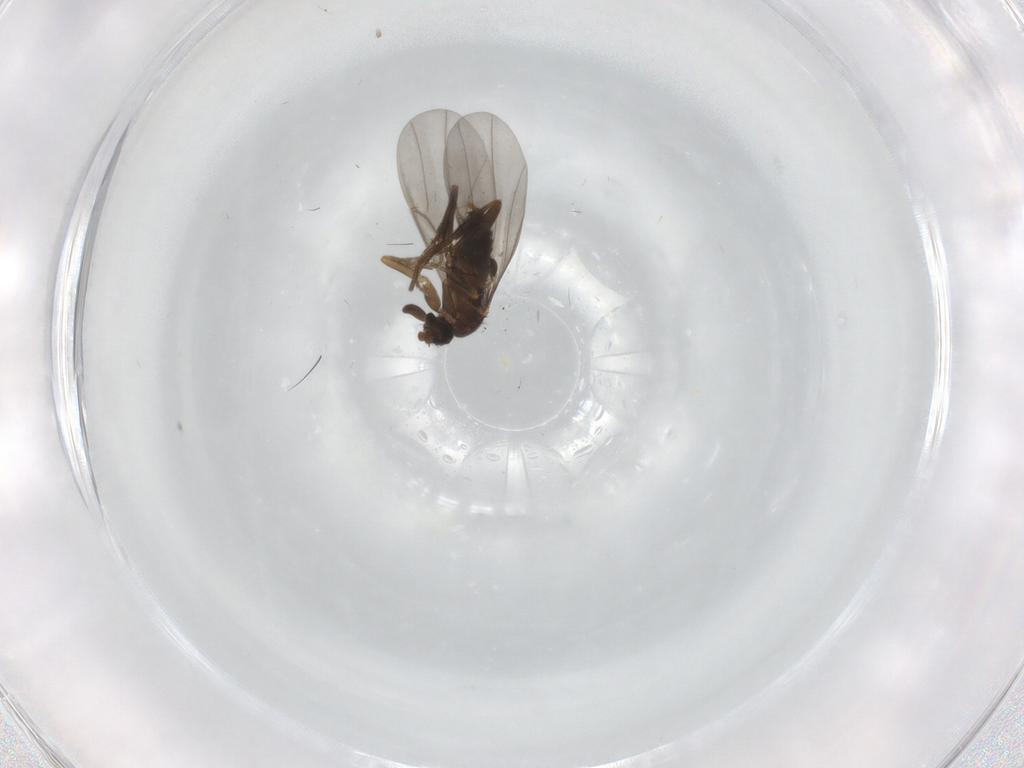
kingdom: Animalia
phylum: Arthropoda
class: Insecta
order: Diptera
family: Sciaridae
